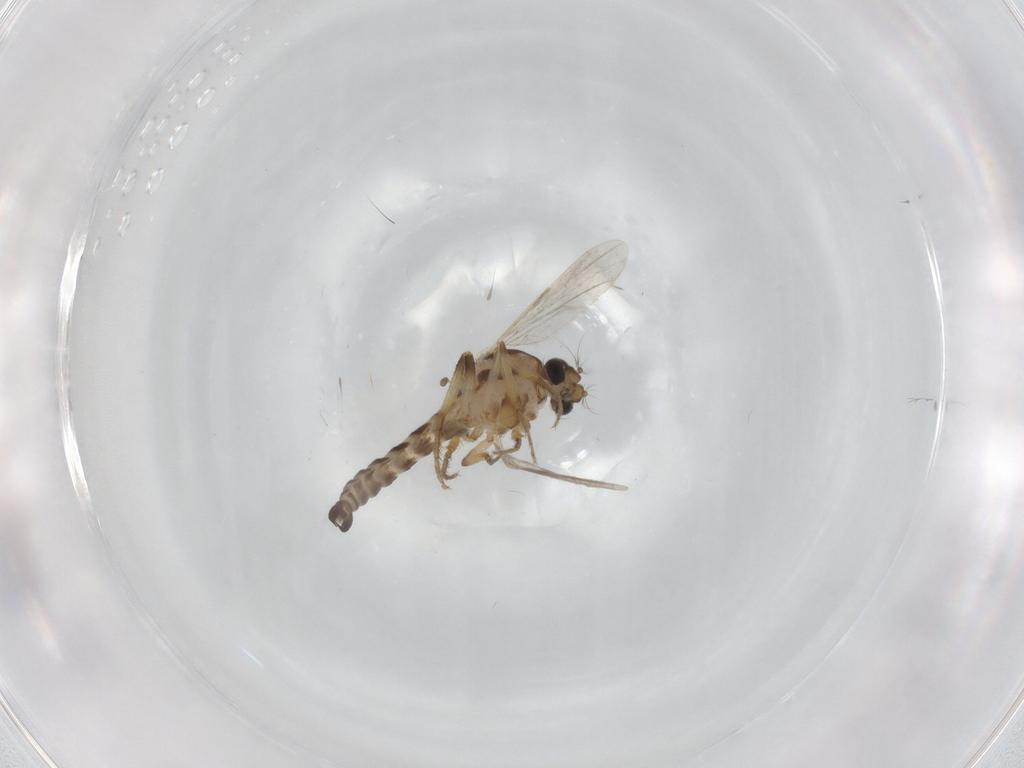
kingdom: Animalia
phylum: Arthropoda
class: Insecta
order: Diptera
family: Ceratopogonidae
